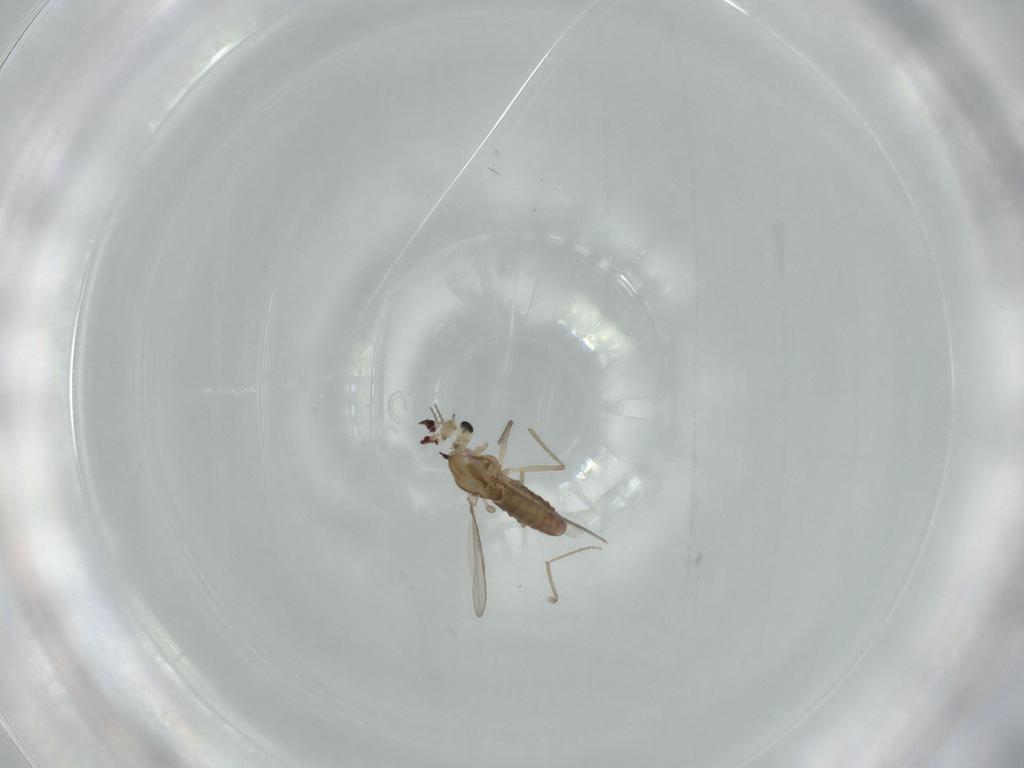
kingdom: Animalia
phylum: Arthropoda
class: Insecta
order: Diptera
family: Chironomidae
